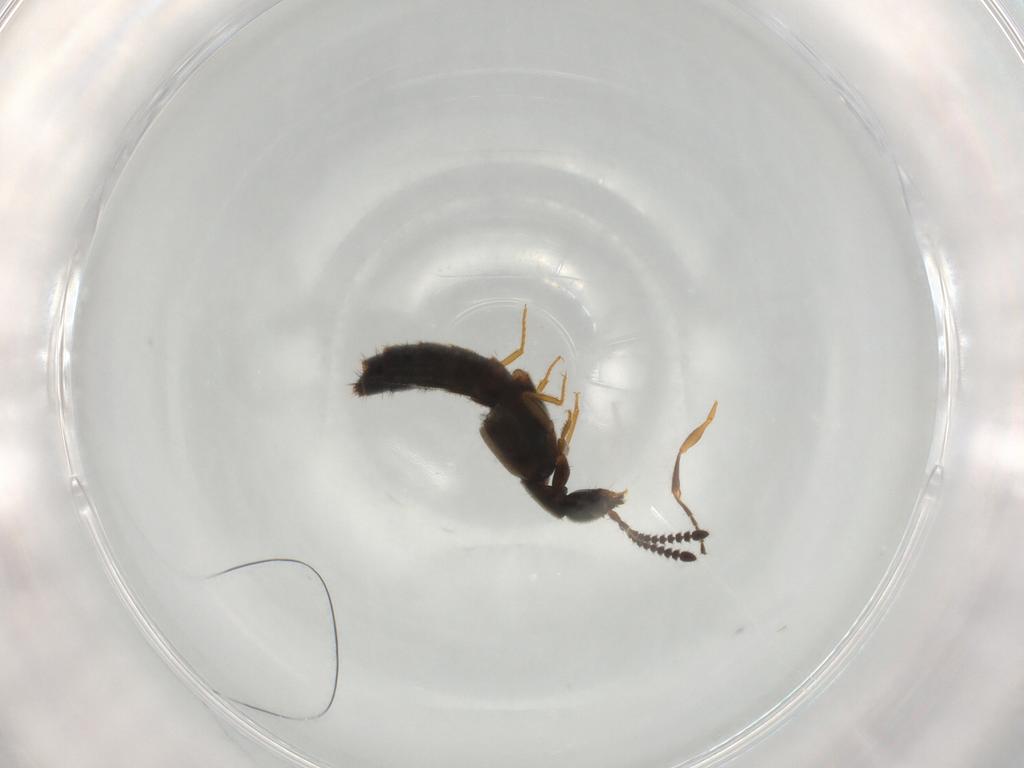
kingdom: Animalia
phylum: Arthropoda
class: Insecta
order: Coleoptera
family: Staphylinidae
